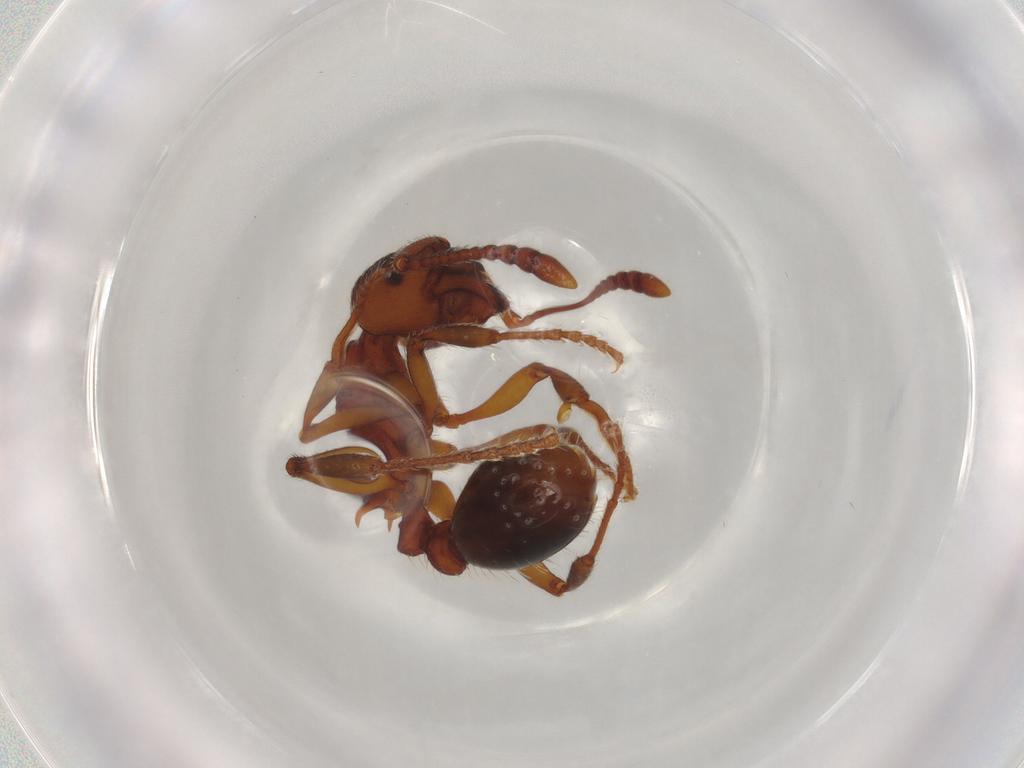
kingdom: Animalia
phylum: Arthropoda
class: Insecta
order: Hymenoptera
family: Formicidae
